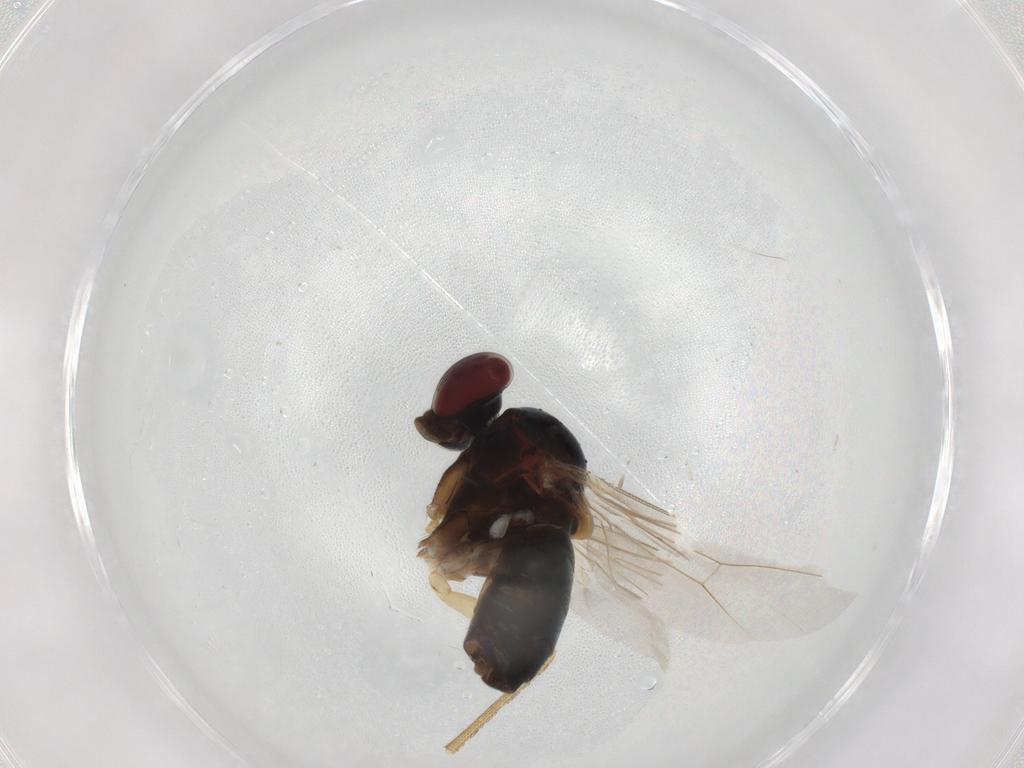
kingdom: Animalia
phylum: Arthropoda
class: Insecta
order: Diptera
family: Dolichopodidae
